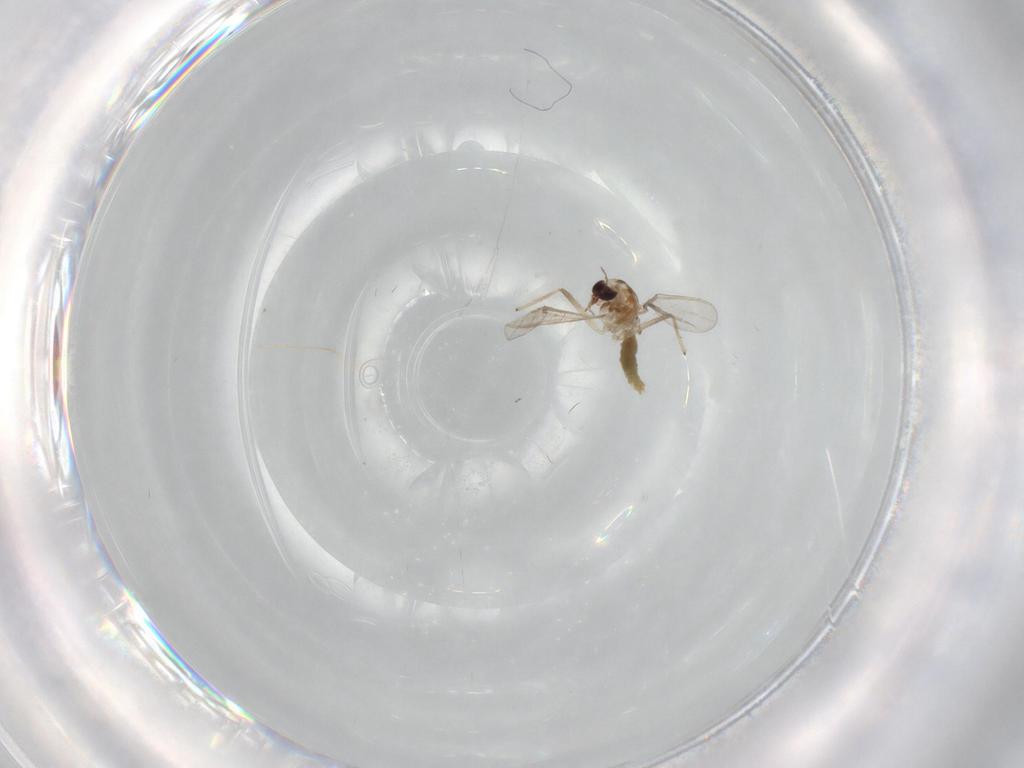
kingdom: Animalia
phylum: Arthropoda
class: Insecta
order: Diptera
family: Chironomidae
